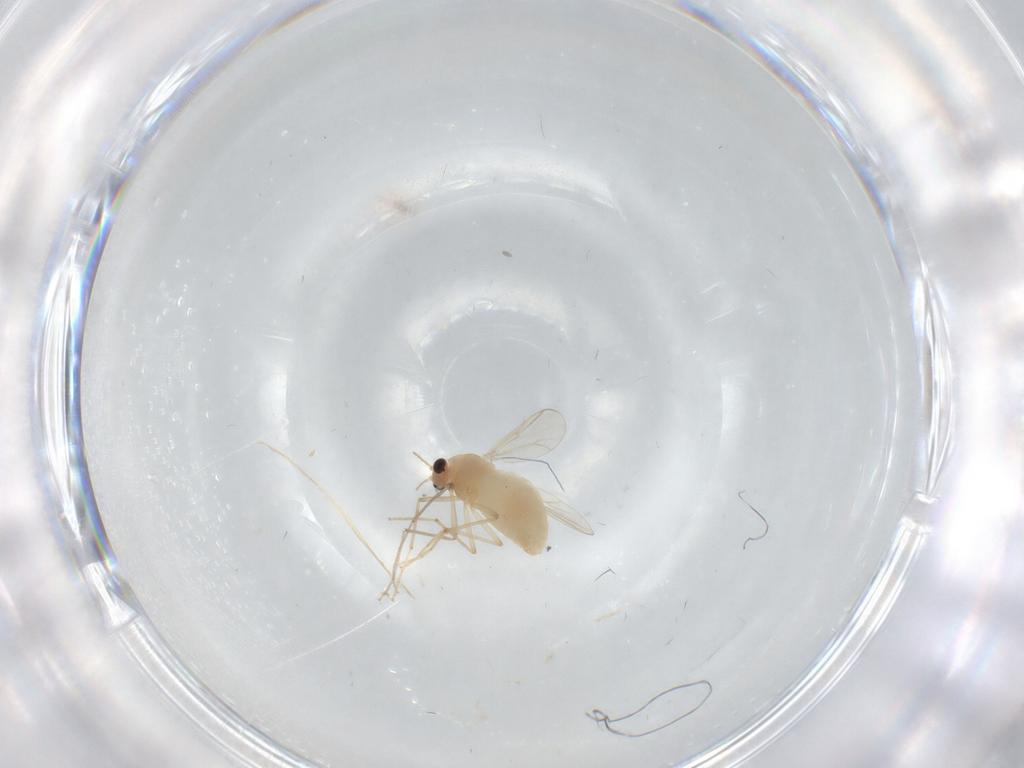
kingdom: Animalia
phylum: Arthropoda
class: Insecta
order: Diptera
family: Chironomidae
